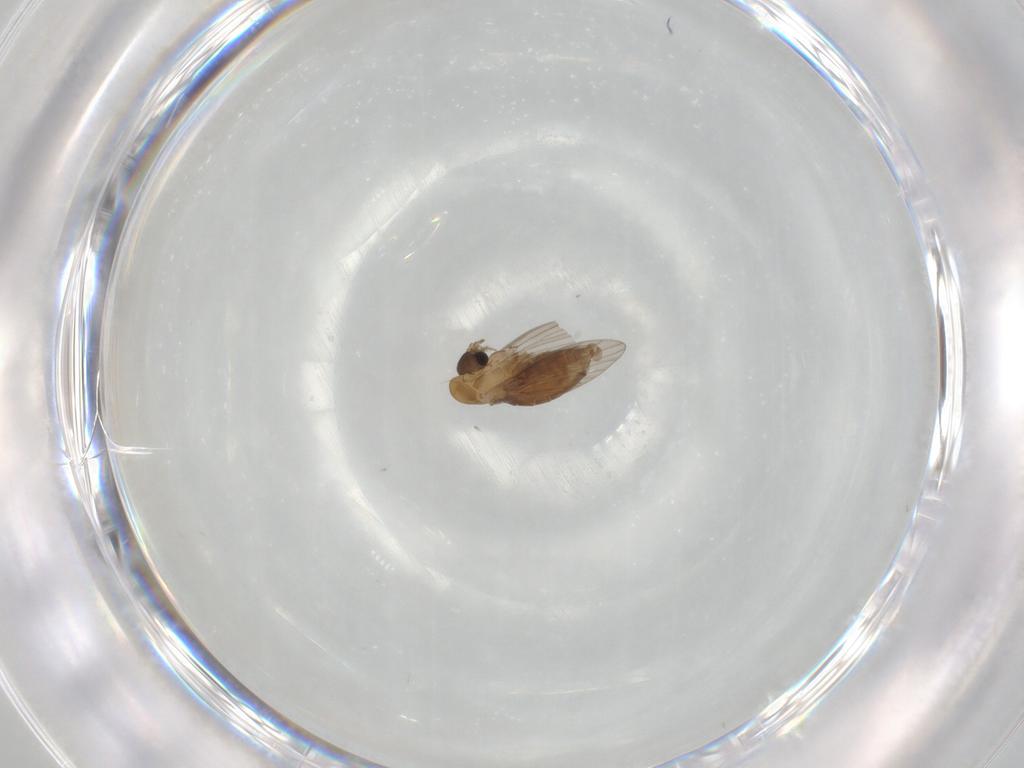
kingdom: Animalia
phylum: Arthropoda
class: Insecta
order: Diptera
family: Psychodidae
